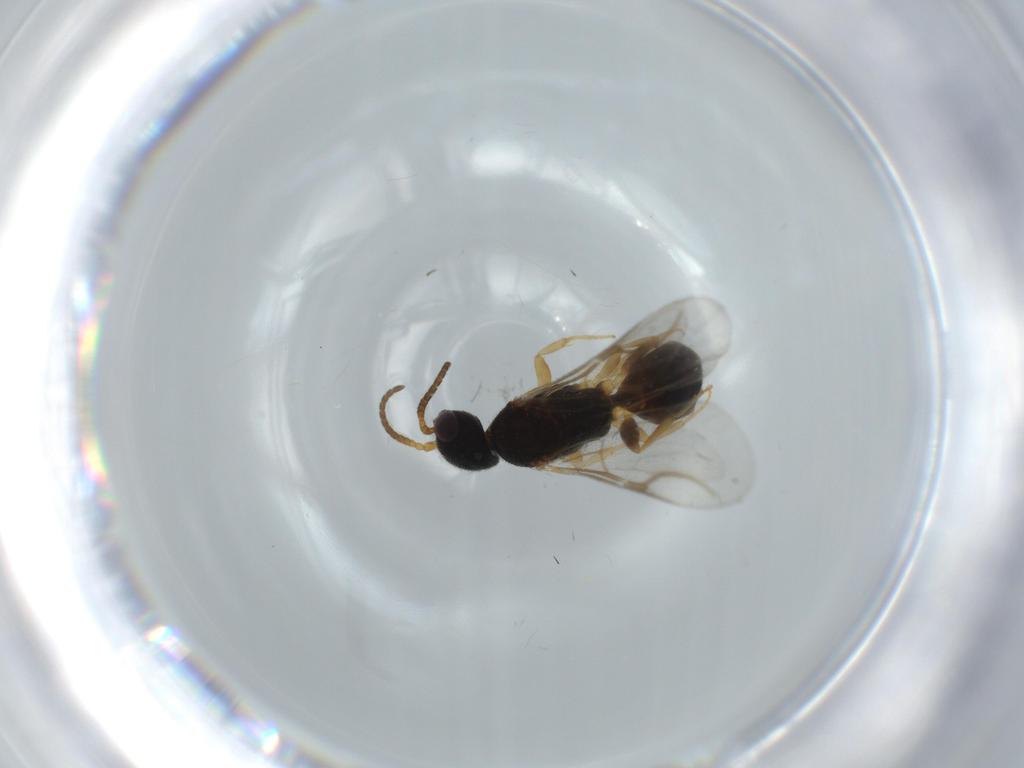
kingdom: Animalia
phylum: Arthropoda
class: Insecta
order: Hymenoptera
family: Bethylidae
